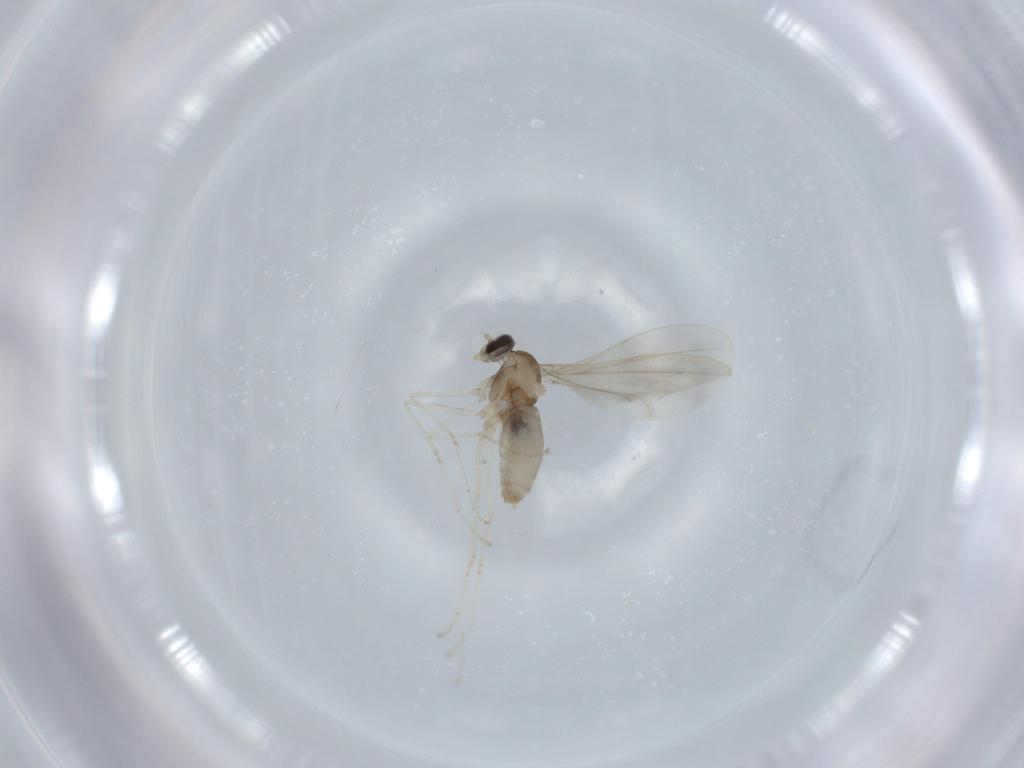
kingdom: Animalia
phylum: Arthropoda
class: Insecta
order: Diptera
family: Cecidomyiidae
